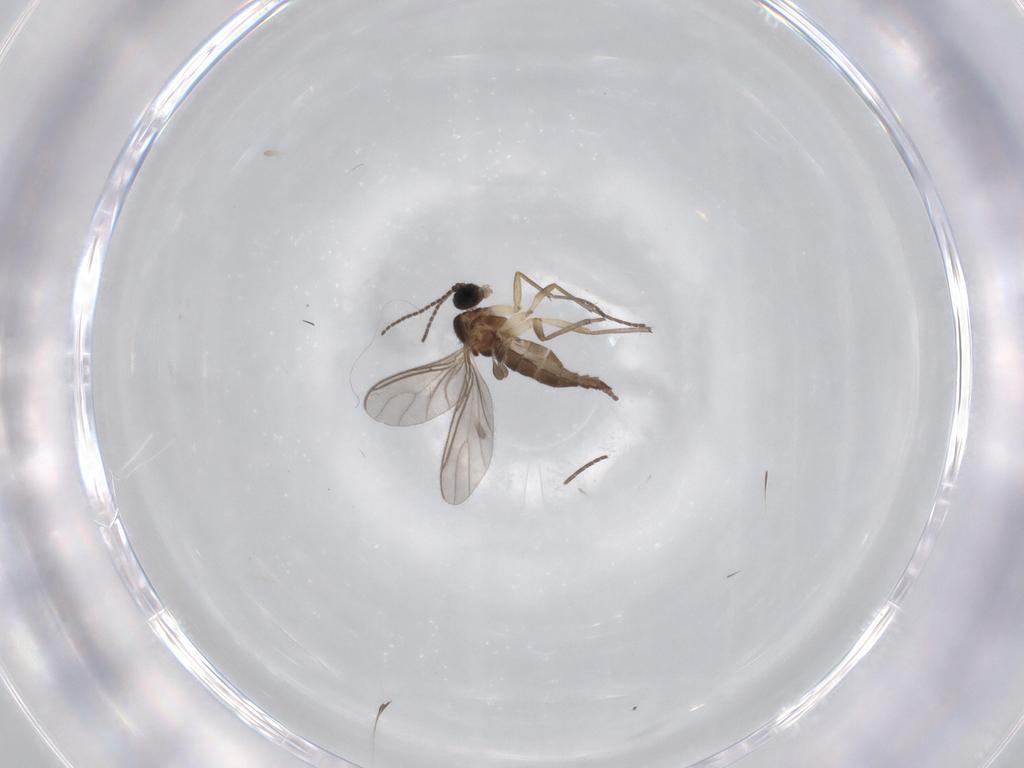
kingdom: Animalia
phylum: Arthropoda
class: Insecta
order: Diptera
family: Sciaridae
